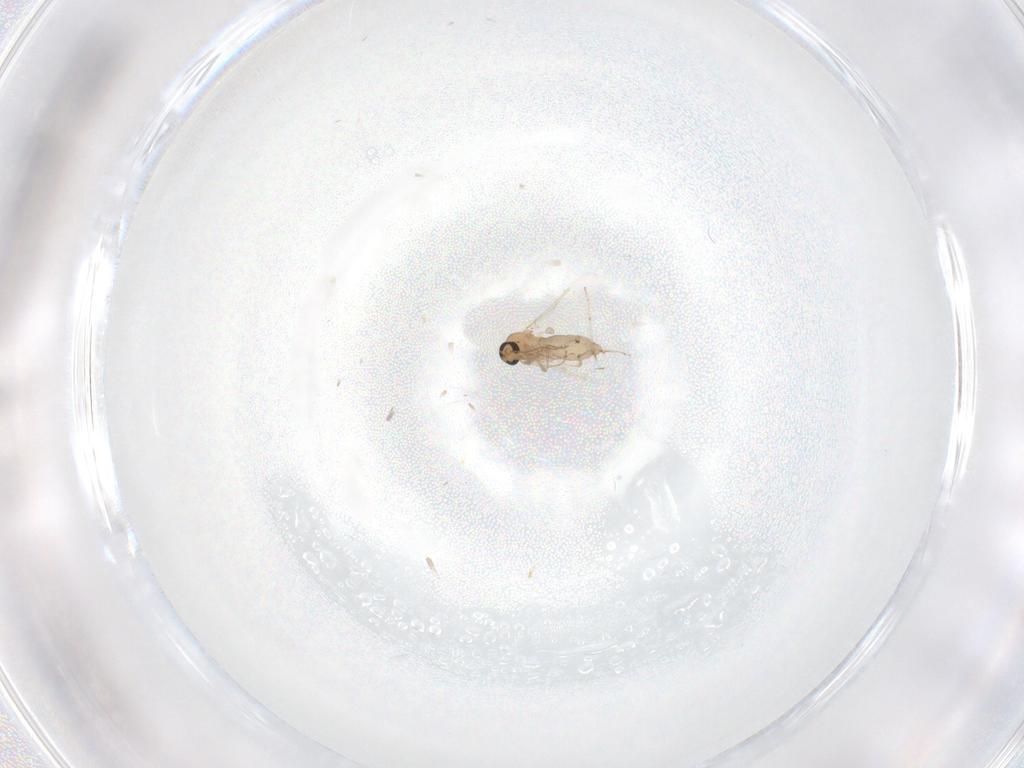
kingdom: Animalia
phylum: Arthropoda
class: Insecta
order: Diptera
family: Ceratopogonidae
